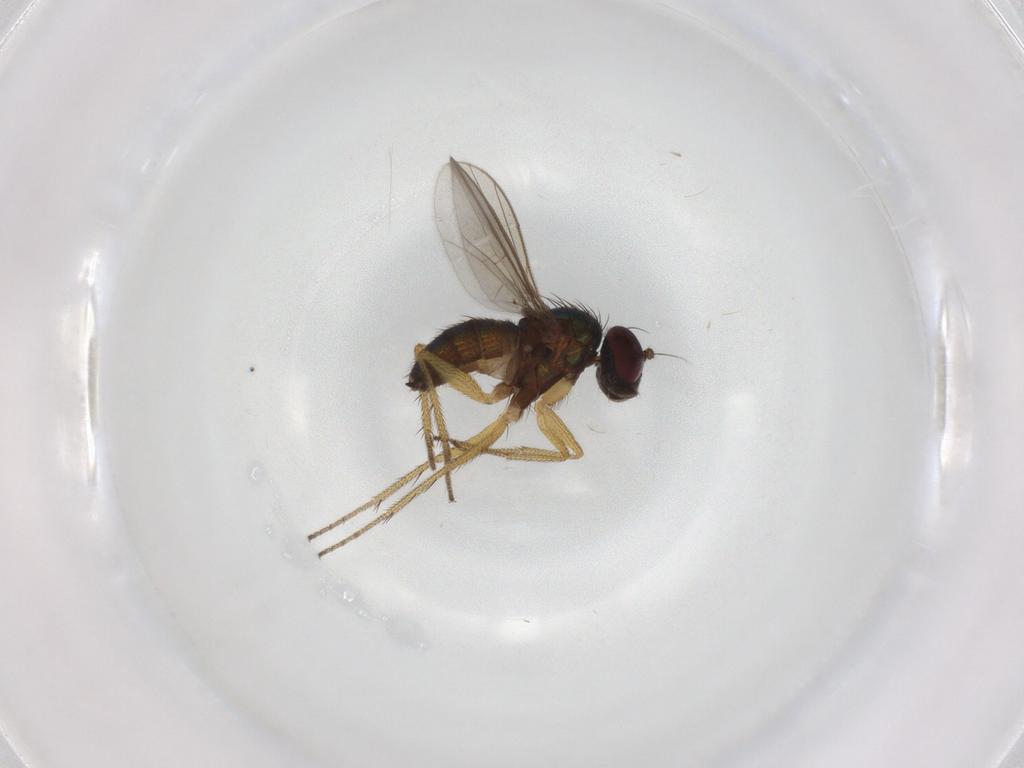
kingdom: Animalia
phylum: Arthropoda
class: Insecta
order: Diptera
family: Dolichopodidae
